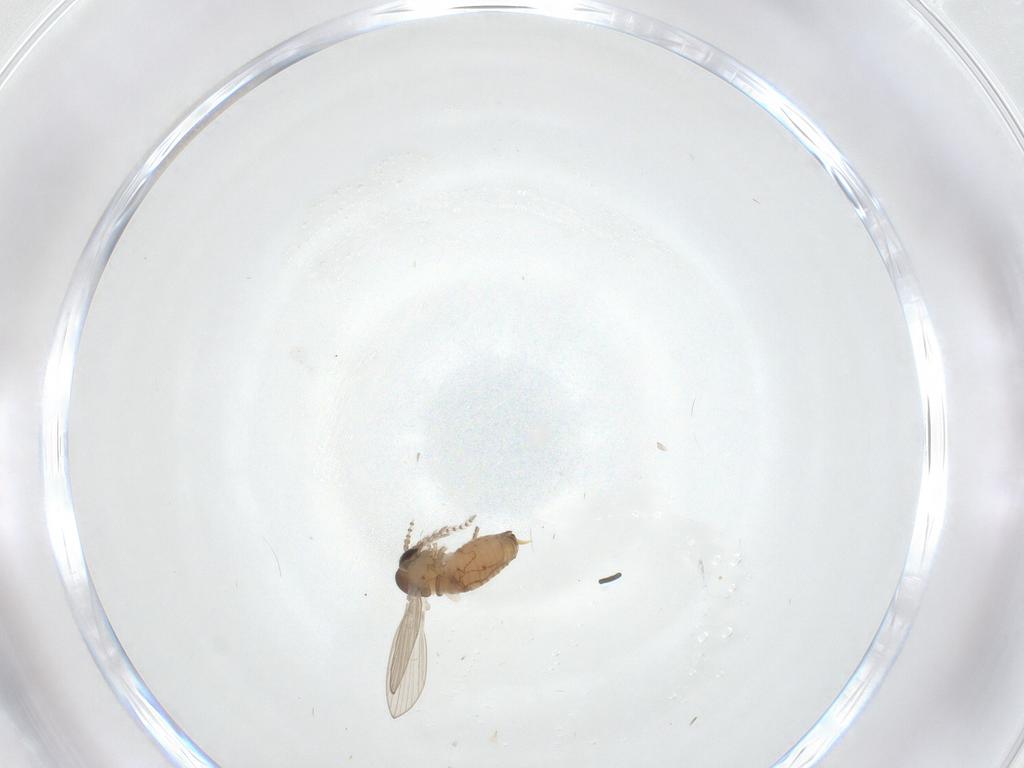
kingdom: Animalia
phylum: Arthropoda
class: Insecta
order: Diptera
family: Psychodidae
